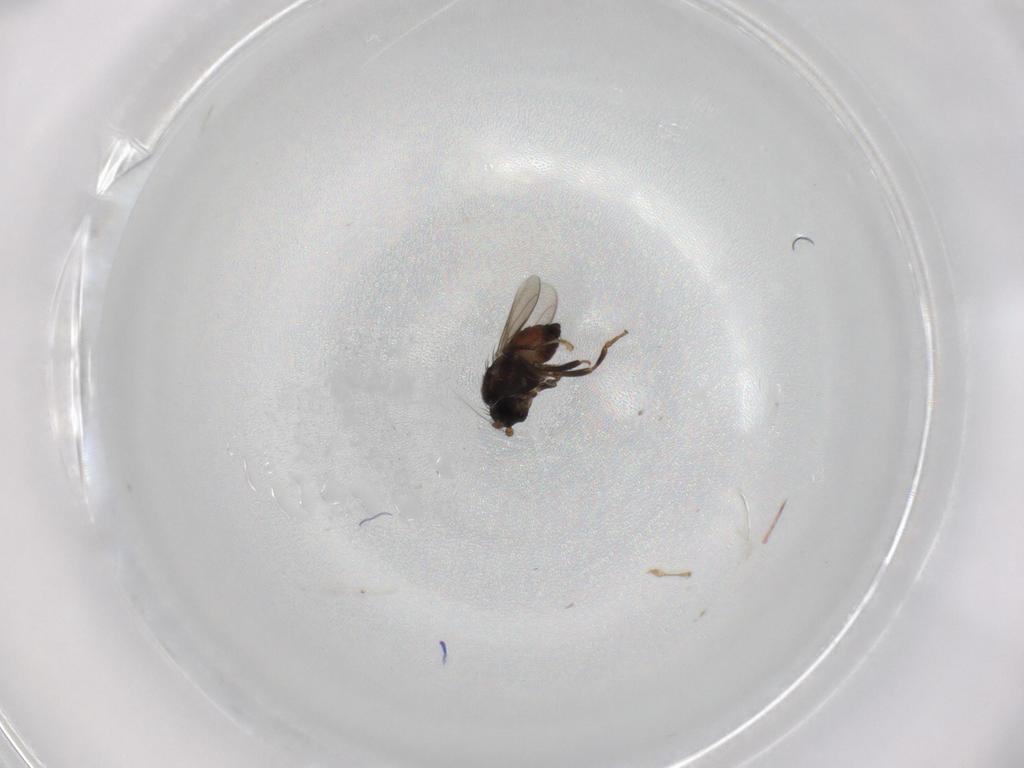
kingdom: Animalia
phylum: Arthropoda
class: Insecta
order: Diptera
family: Sphaeroceridae
